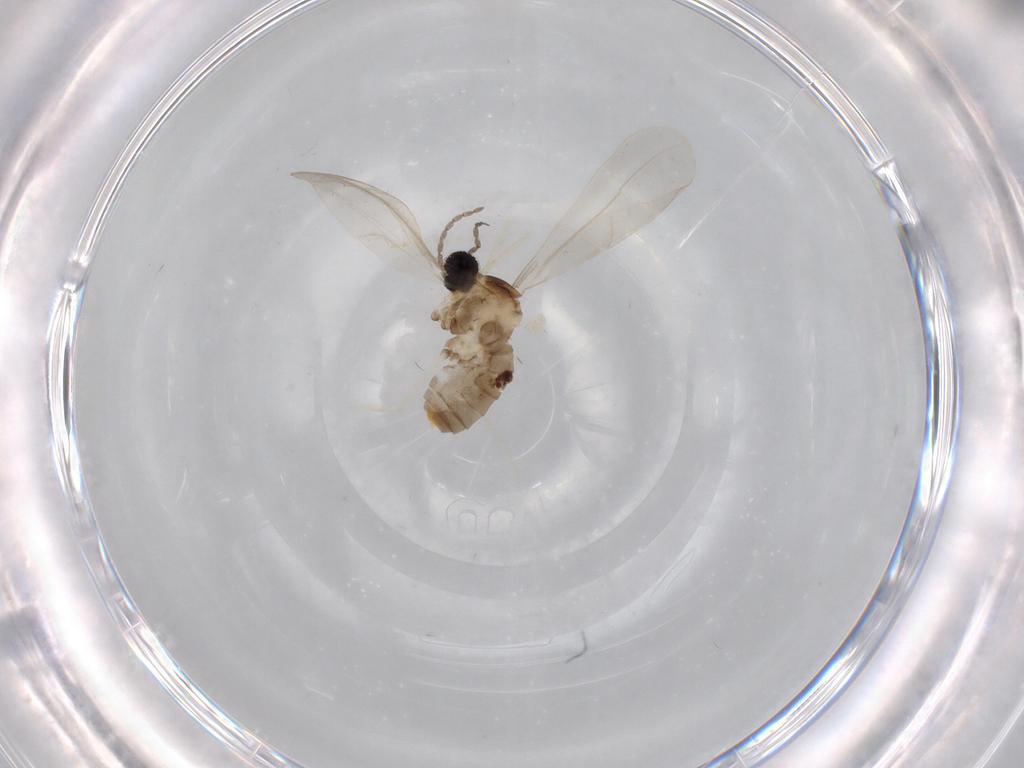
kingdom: Animalia
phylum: Arthropoda
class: Insecta
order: Diptera
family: Cecidomyiidae
